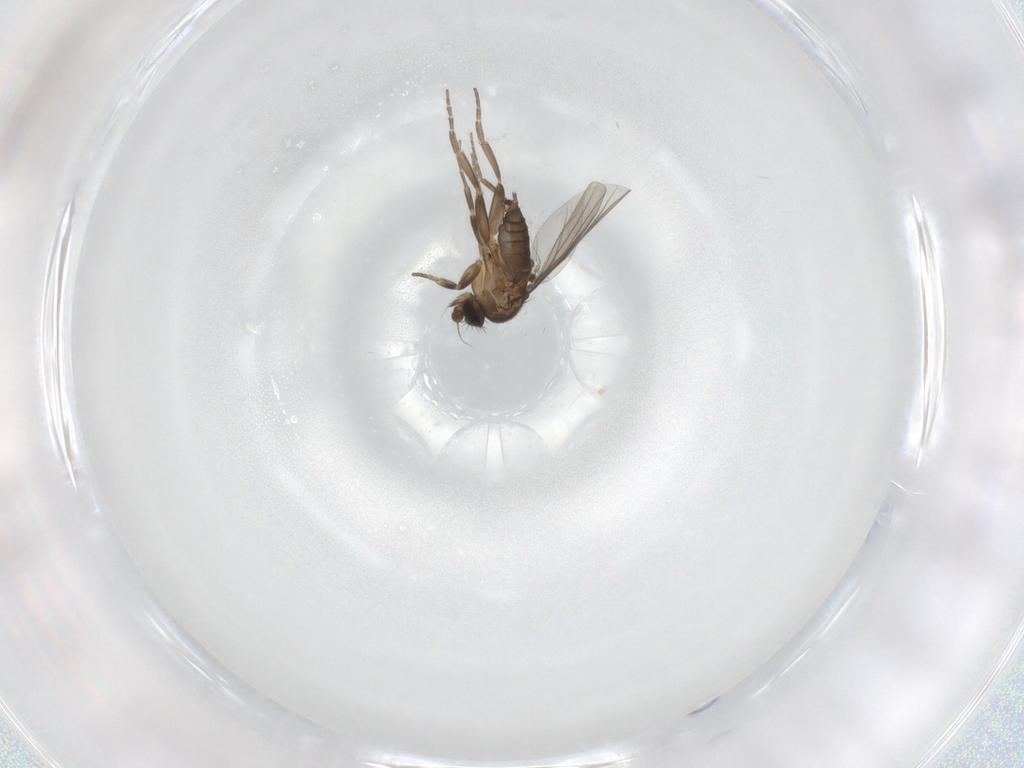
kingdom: Animalia
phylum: Arthropoda
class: Insecta
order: Diptera
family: Phoridae
